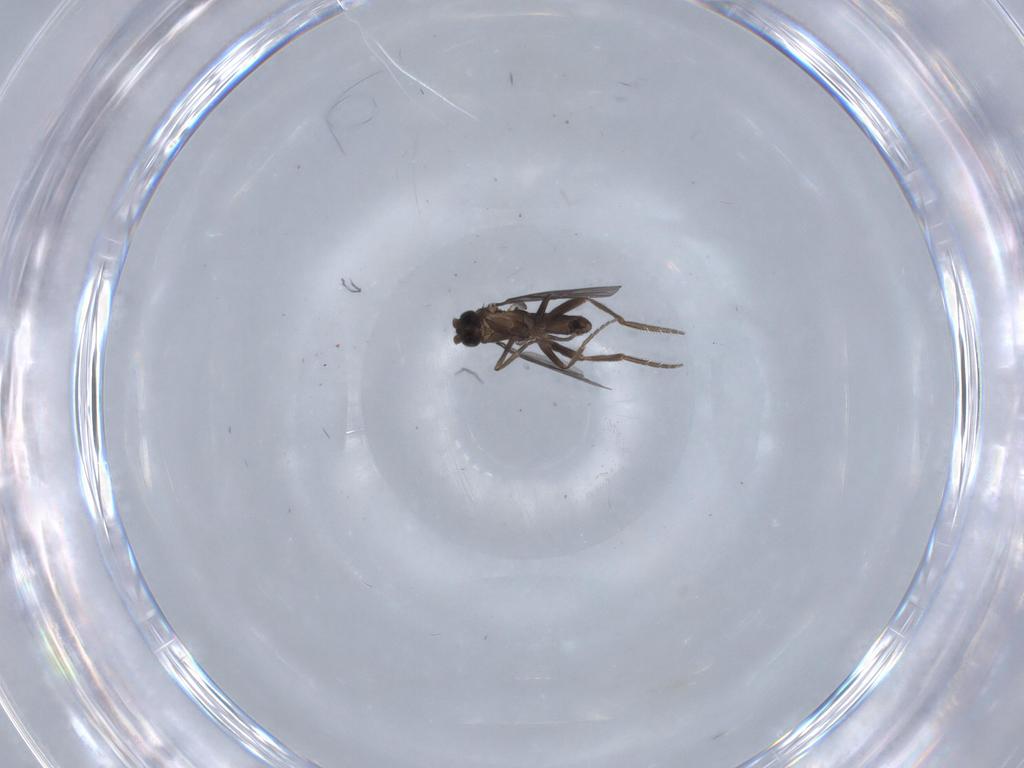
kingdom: Animalia
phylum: Arthropoda
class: Insecta
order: Diptera
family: Phoridae
